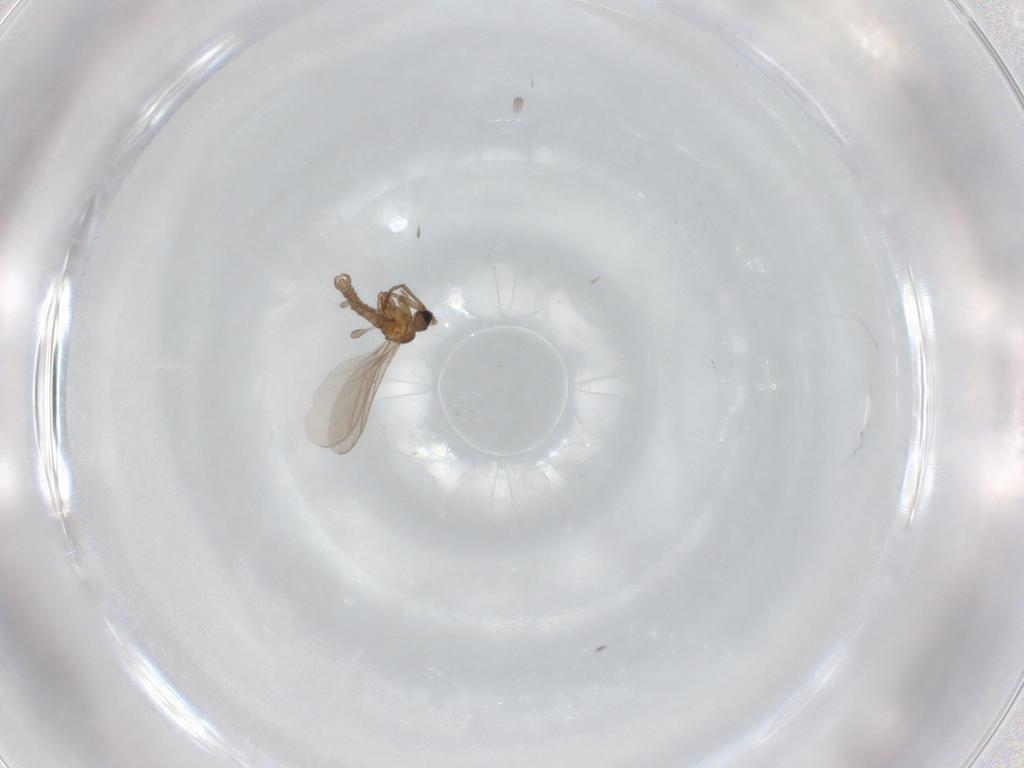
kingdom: Animalia
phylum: Arthropoda
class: Insecta
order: Diptera
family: Sciaridae
